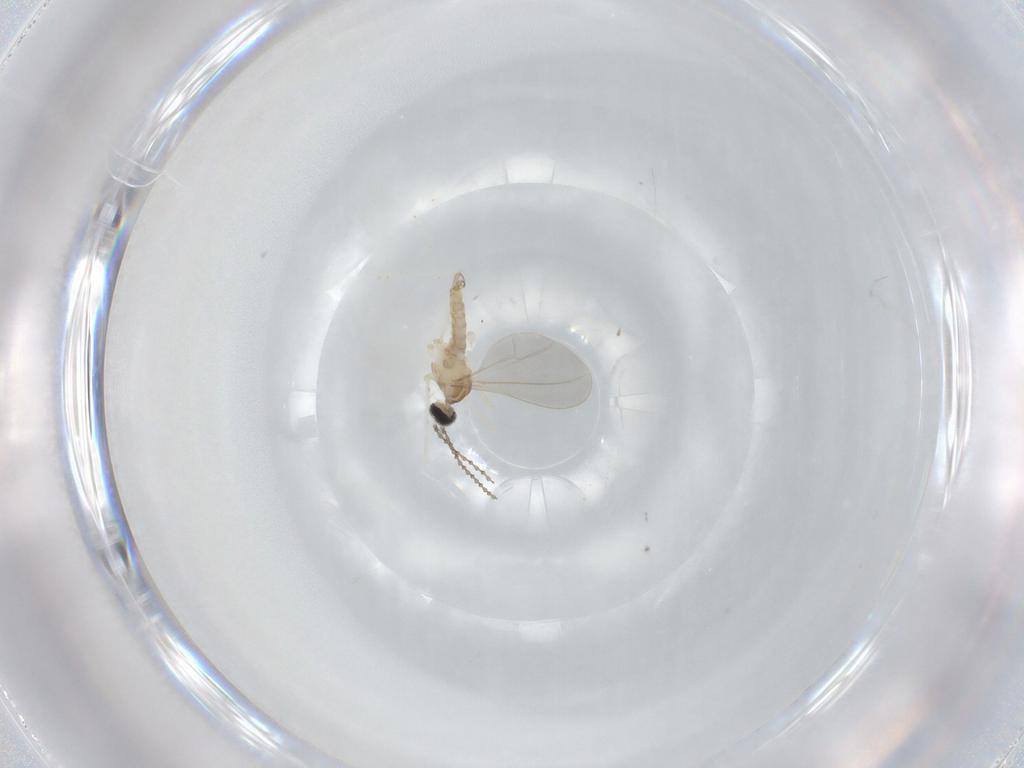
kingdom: Animalia
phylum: Arthropoda
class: Insecta
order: Diptera
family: Cecidomyiidae
